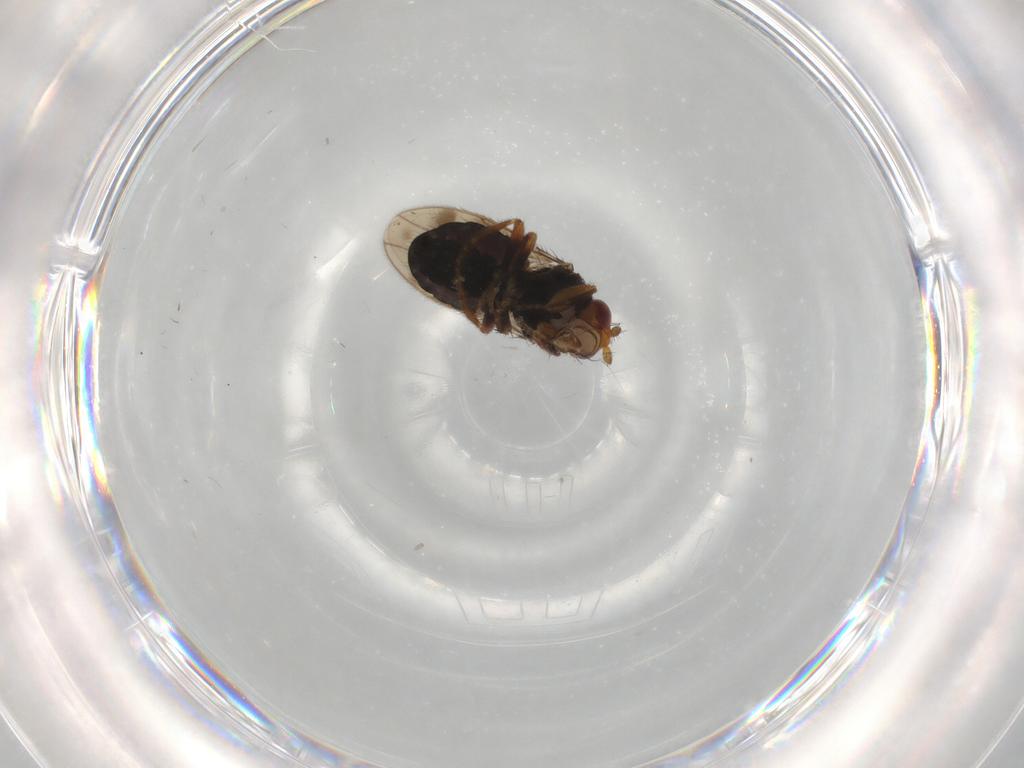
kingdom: Animalia
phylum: Arthropoda
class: Insecta
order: Diptera
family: Sphaeroceridae
